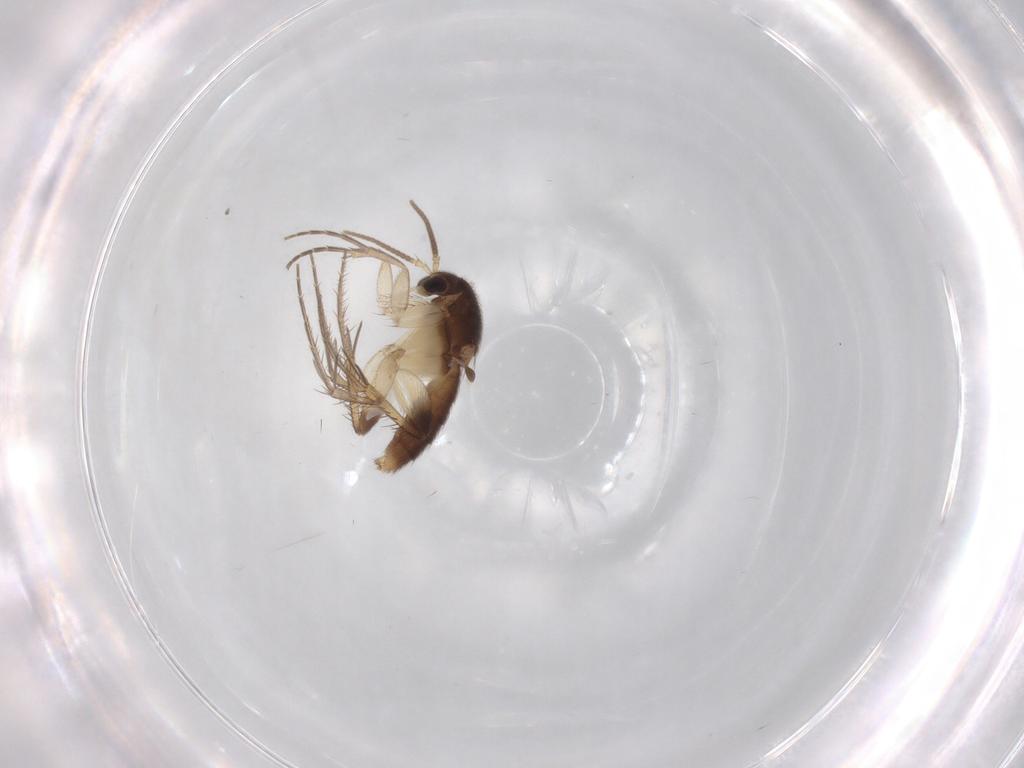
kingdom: Animalia
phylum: Arthropoda
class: Insecta
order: Diptera
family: Mycetophilidae
